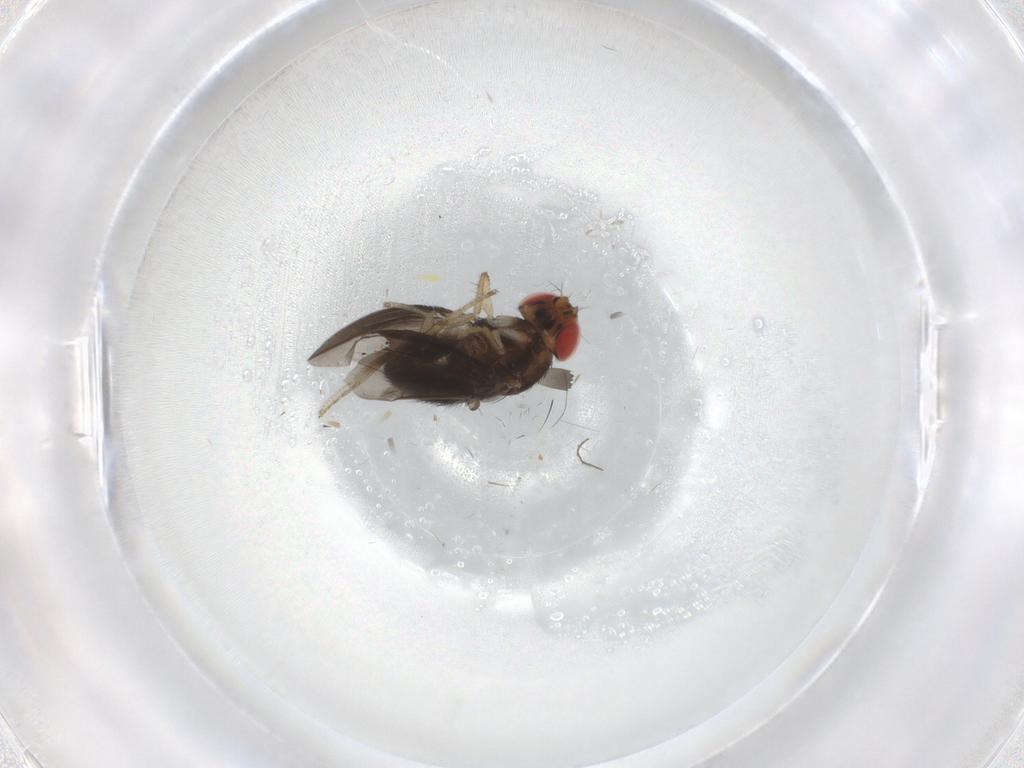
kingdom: Animalia
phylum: Arthropoda
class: Insecta
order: Diptera
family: Drosophilidae
